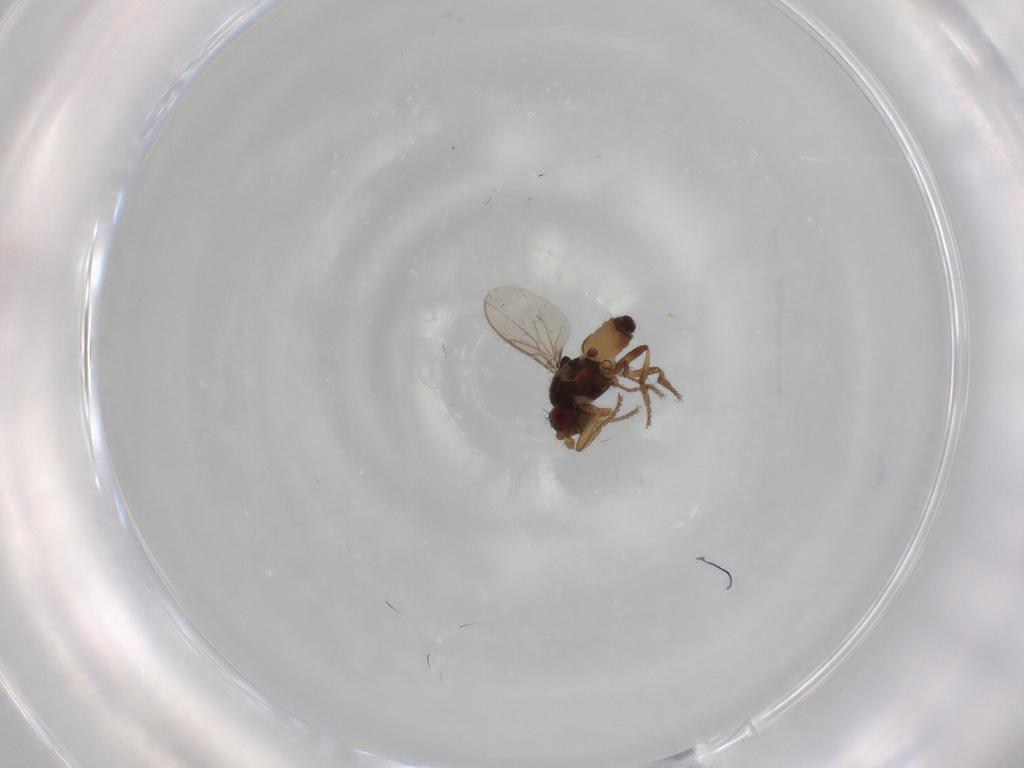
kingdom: Animalia
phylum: Arthropoda
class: Insecta
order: Diptera
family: Sphaeroceridae
